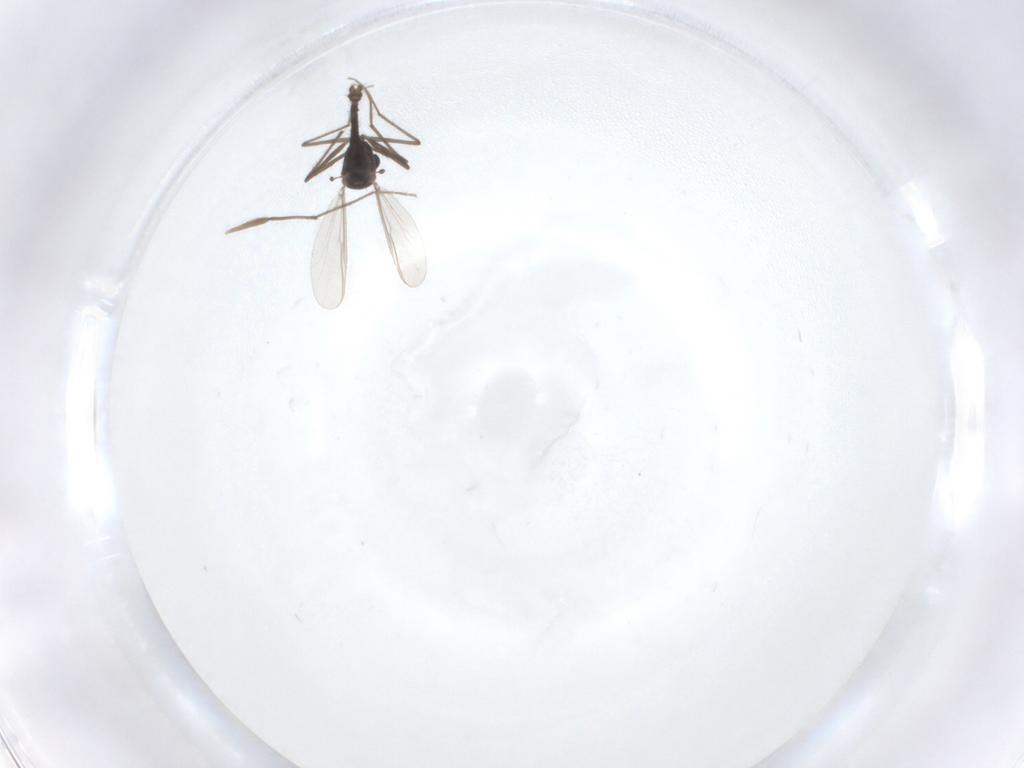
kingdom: Animalia
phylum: Arthropoda
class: Insecta
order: Diptera
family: Chironomidae
